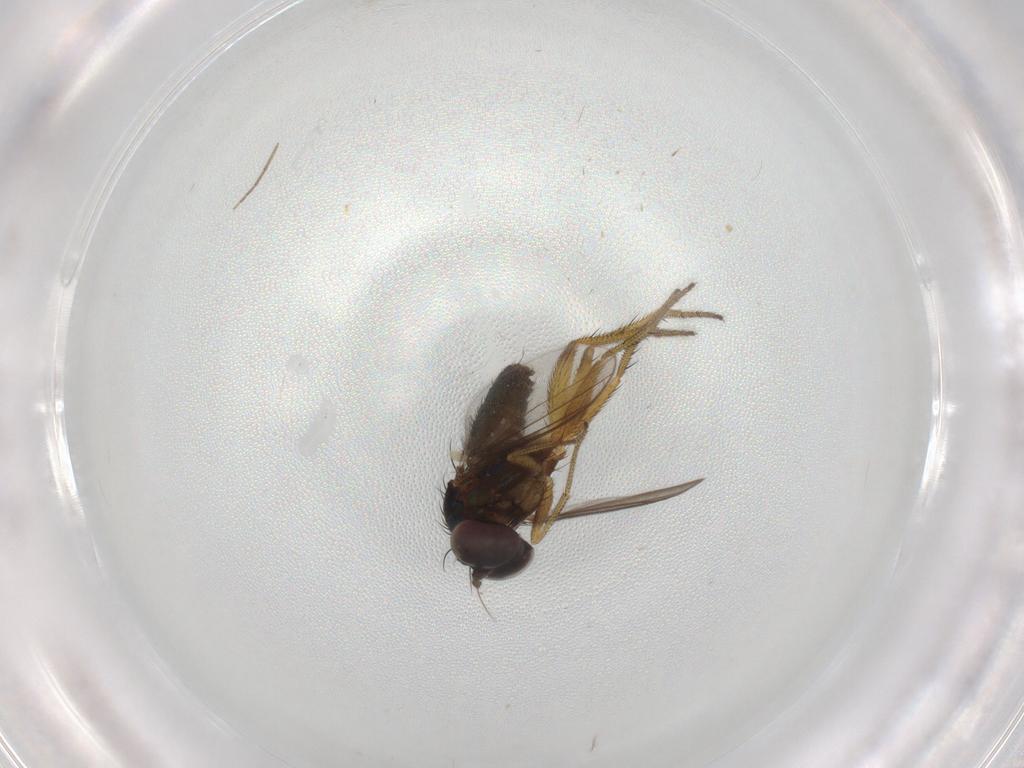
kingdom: Animalia
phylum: Arthropoda
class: Insecta
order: Diptera
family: Dolichopodidae
